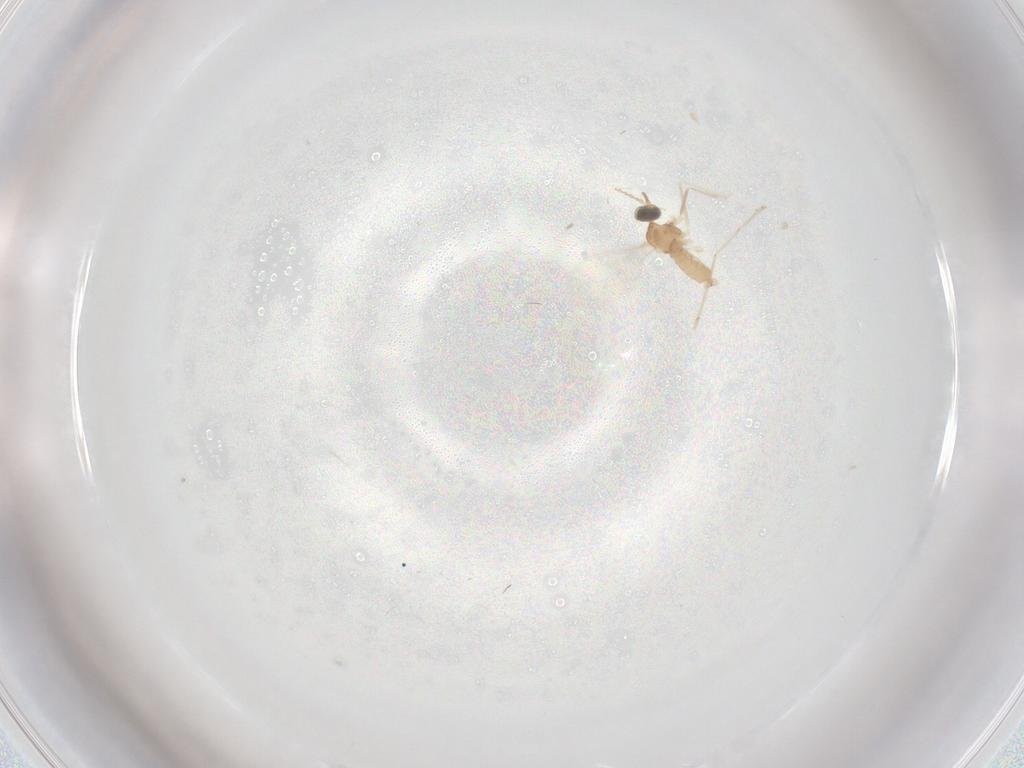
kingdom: Animalia
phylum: Arthropoda
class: Insecta
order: Diptera
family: Cecidomyiidae
